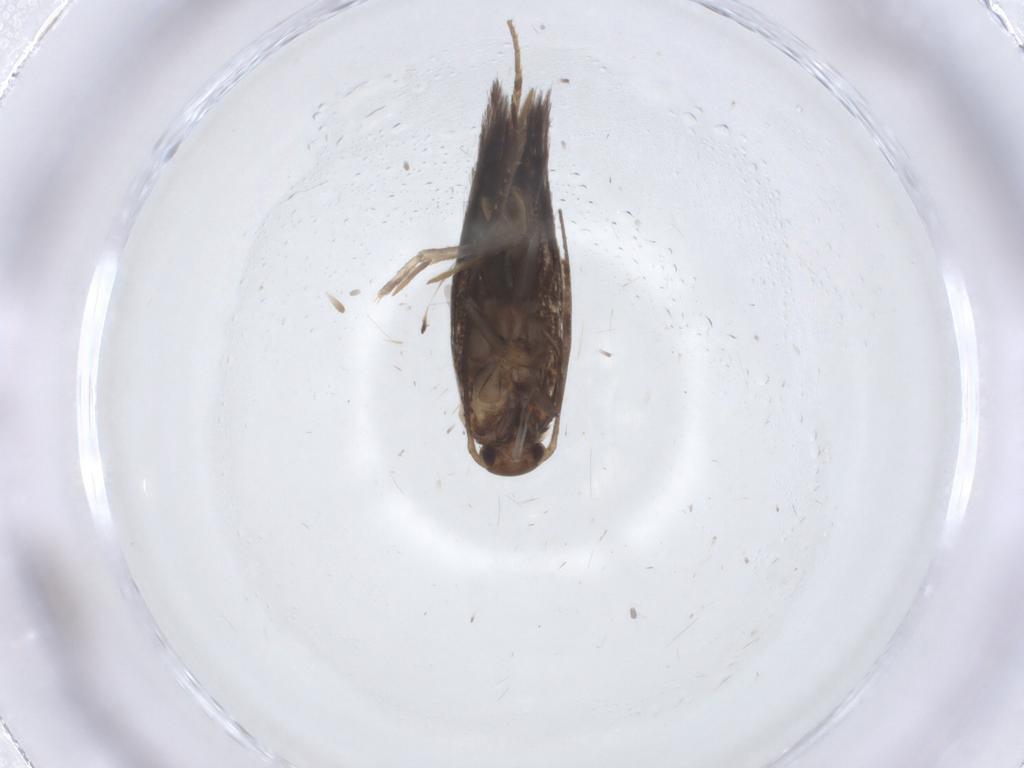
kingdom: Animalia
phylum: Arthropoda
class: Insecta
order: Lepidoptera
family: Elachistidae
